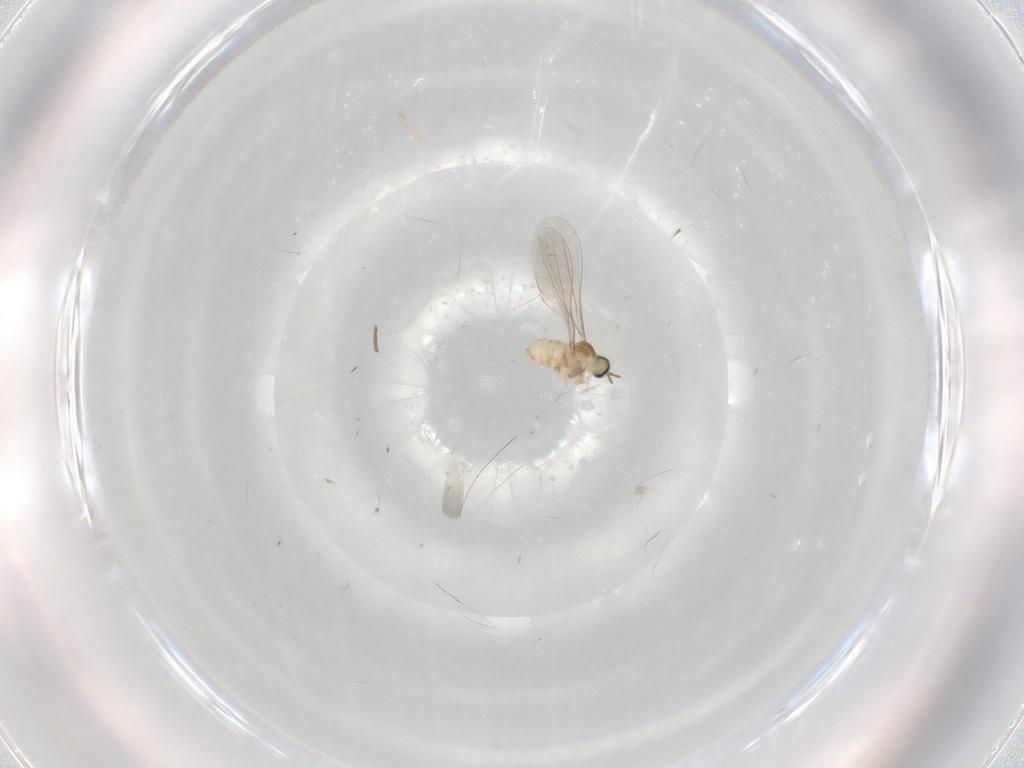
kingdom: Animalia
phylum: Arthropoda
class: Insecta
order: Diptera
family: Cecidomyiidae
